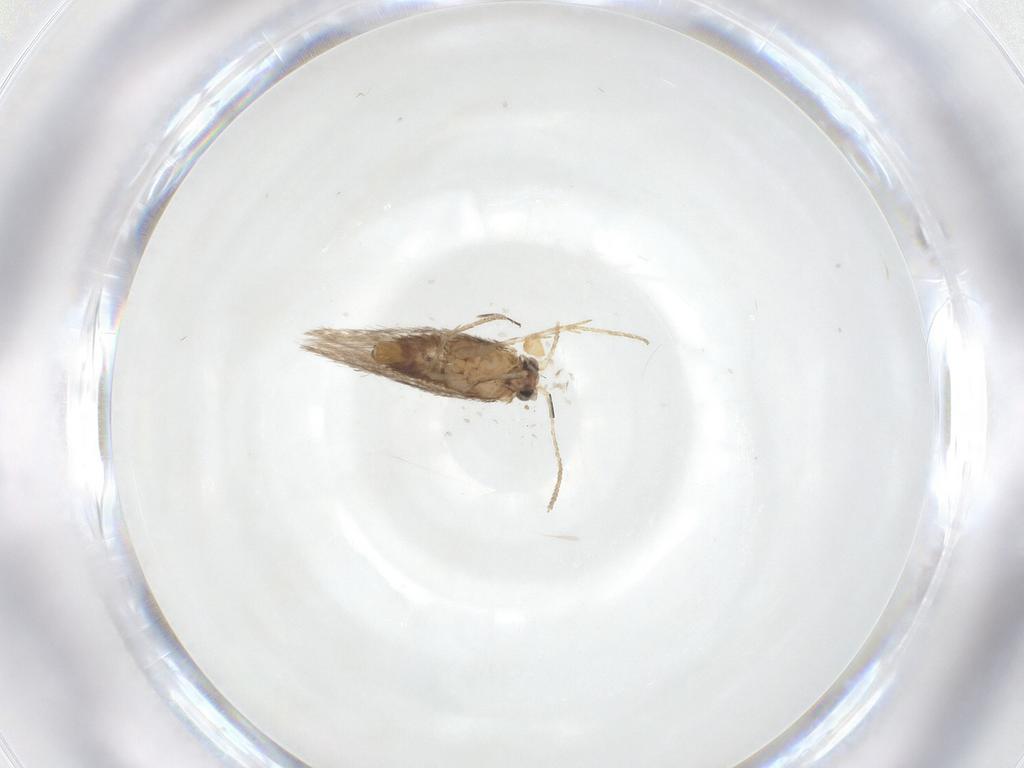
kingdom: Animalia
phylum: Arthropoda
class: Insecta
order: Lepidoptera
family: Nepticulidae
